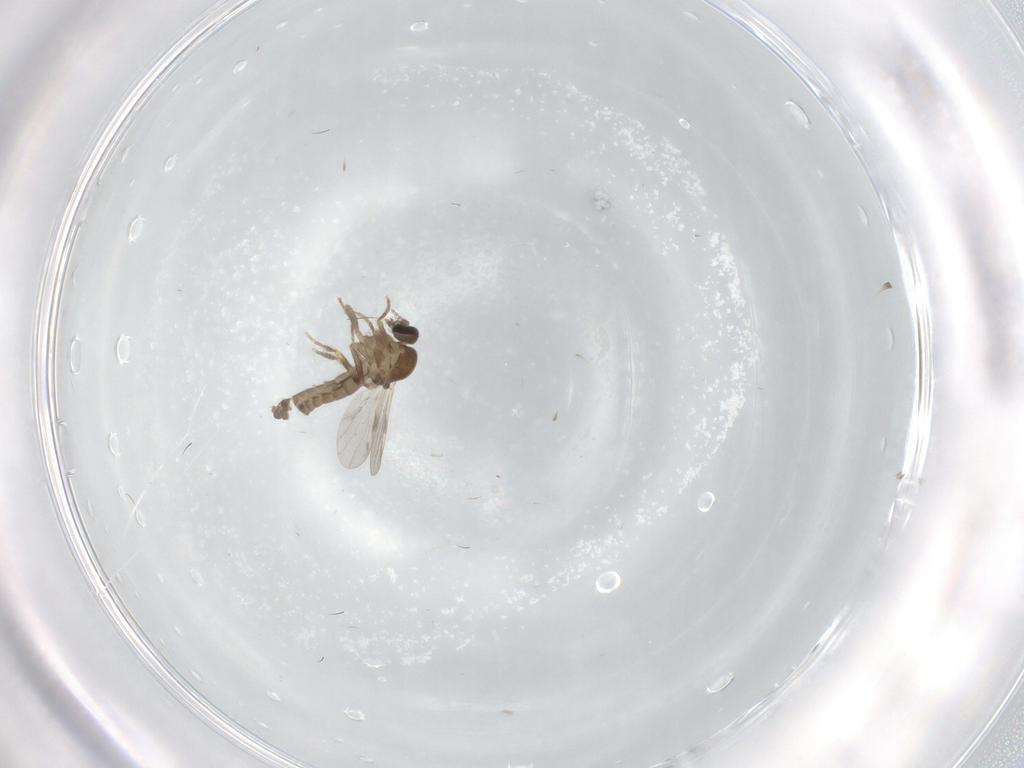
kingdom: Animalia
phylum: Arthropoda
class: Insecta
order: Diptera
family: Ceratopogonidae
